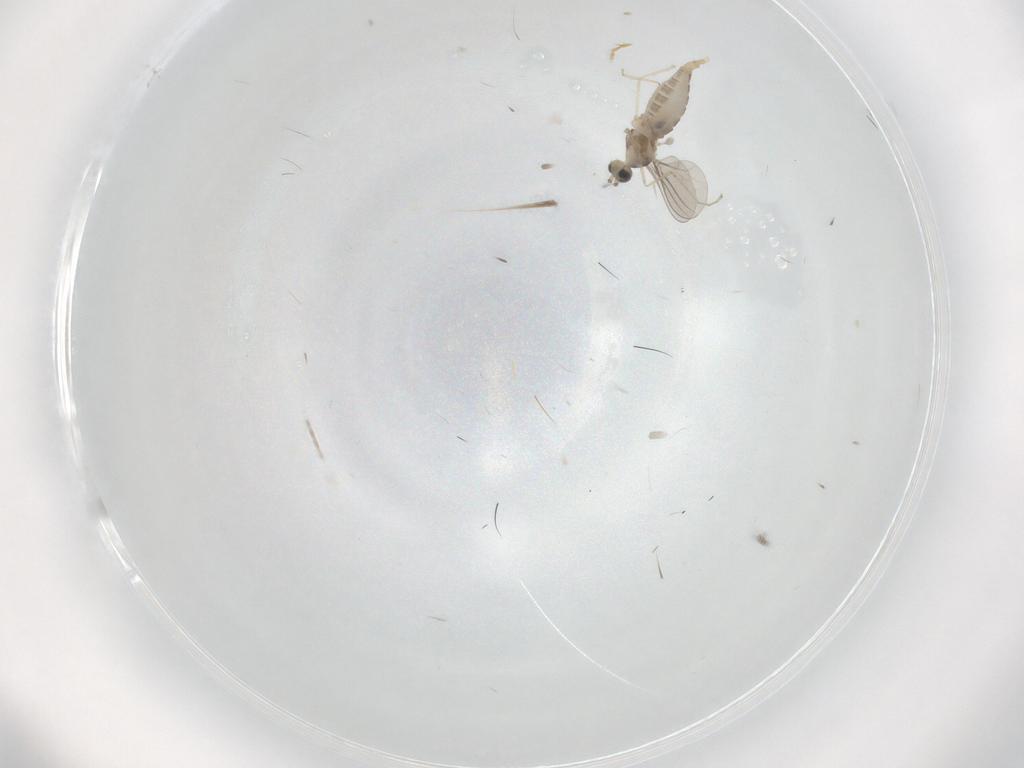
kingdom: Animalia
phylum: Arthropoda
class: Insecta
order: Diptera
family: Cecidomyiidae
